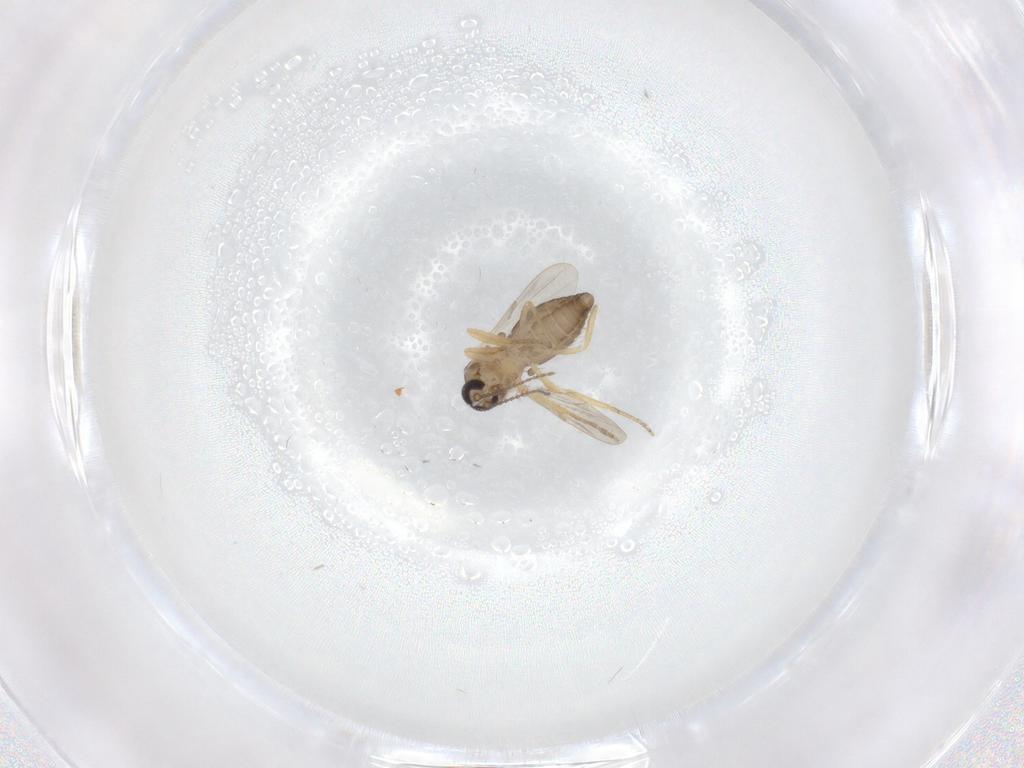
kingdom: Animalia
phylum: Arthropoda
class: Insecta
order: Diptera
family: Ceratopogonidae
